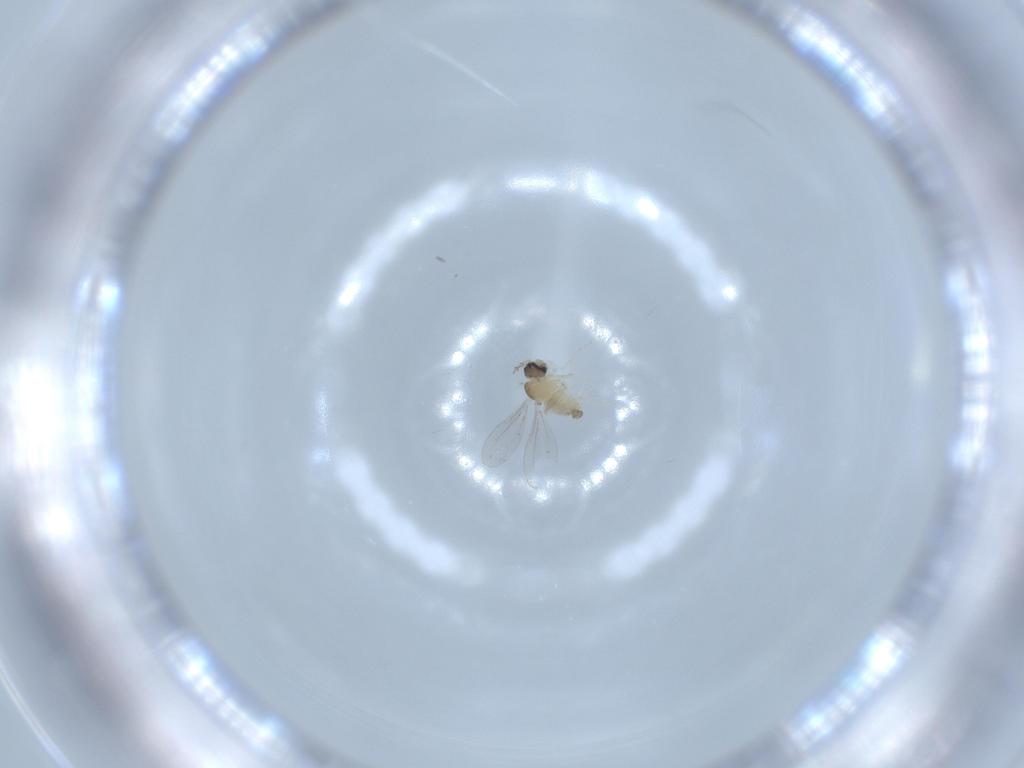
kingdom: Animalia
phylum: Arthropoda
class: Insecta
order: Diptera
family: Cecidomyiidae
